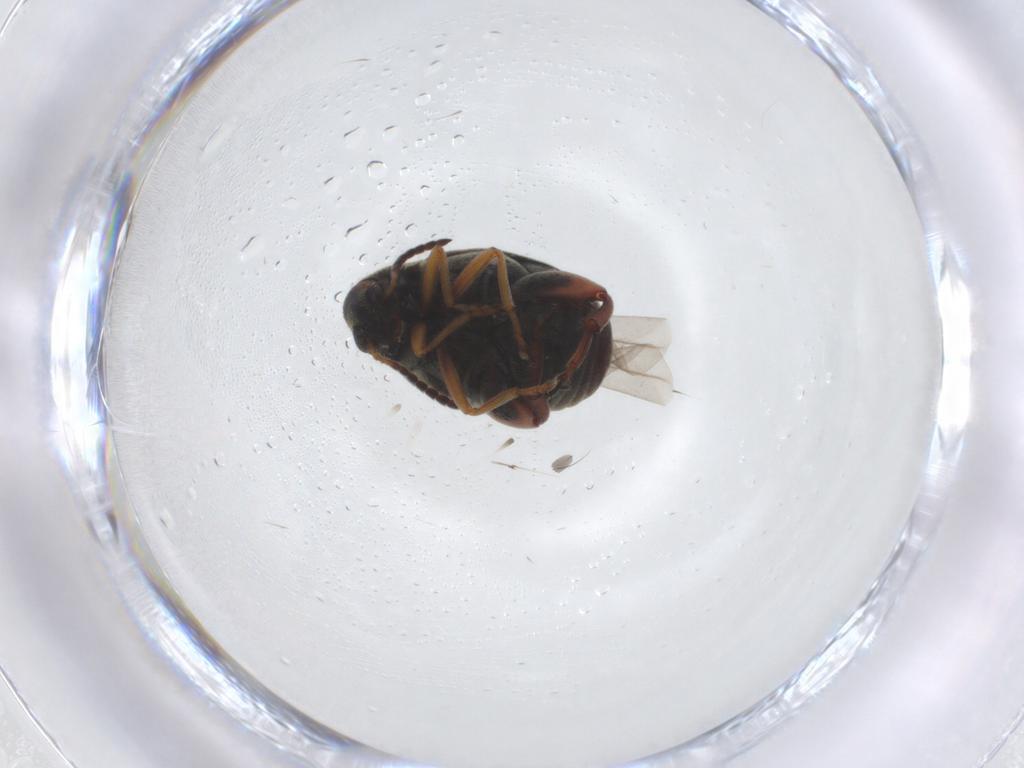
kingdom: Animalia
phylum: Arthropoda
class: Insecta
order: Coleoptera
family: Chrysomelidae
